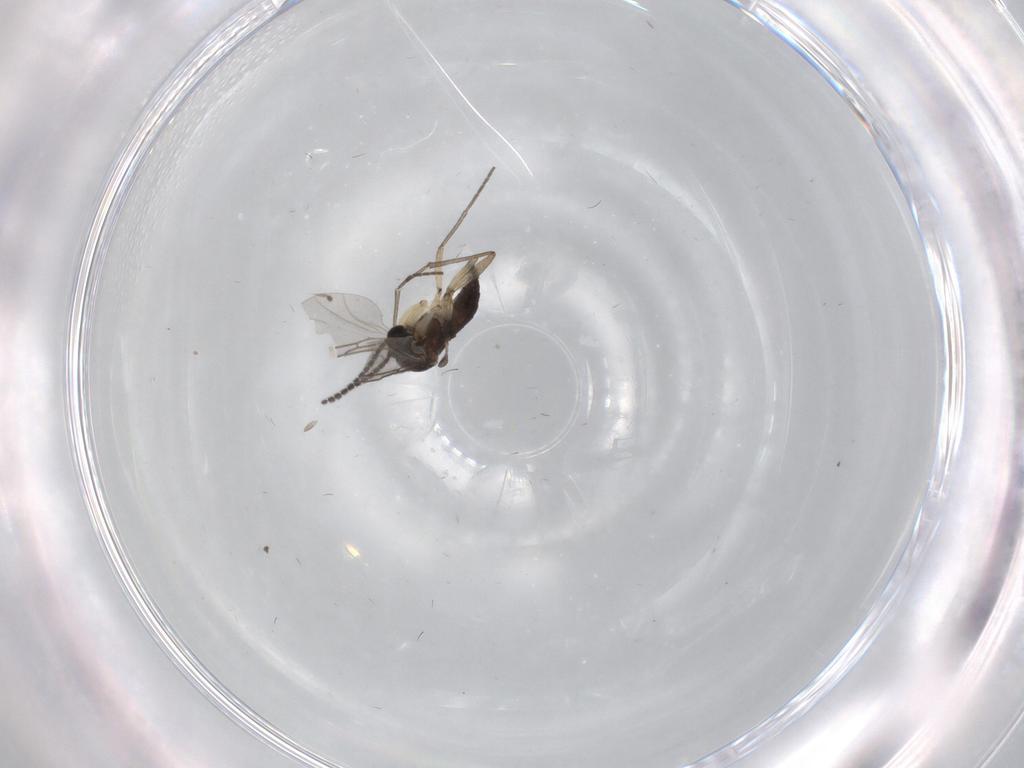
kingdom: Animalia
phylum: Arthropoda
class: Insecta
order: Diptera
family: Sciaridae
